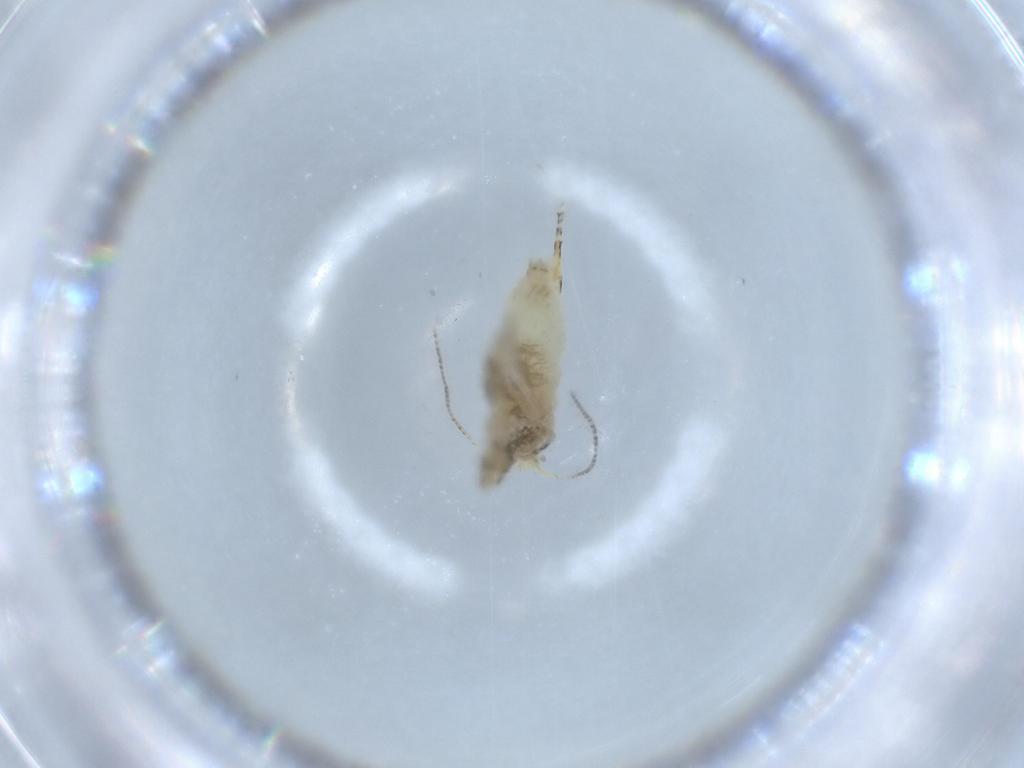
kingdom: Animalia
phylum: Arthropoda
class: Insecta
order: Lepidoptera
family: Bucculatricidae
